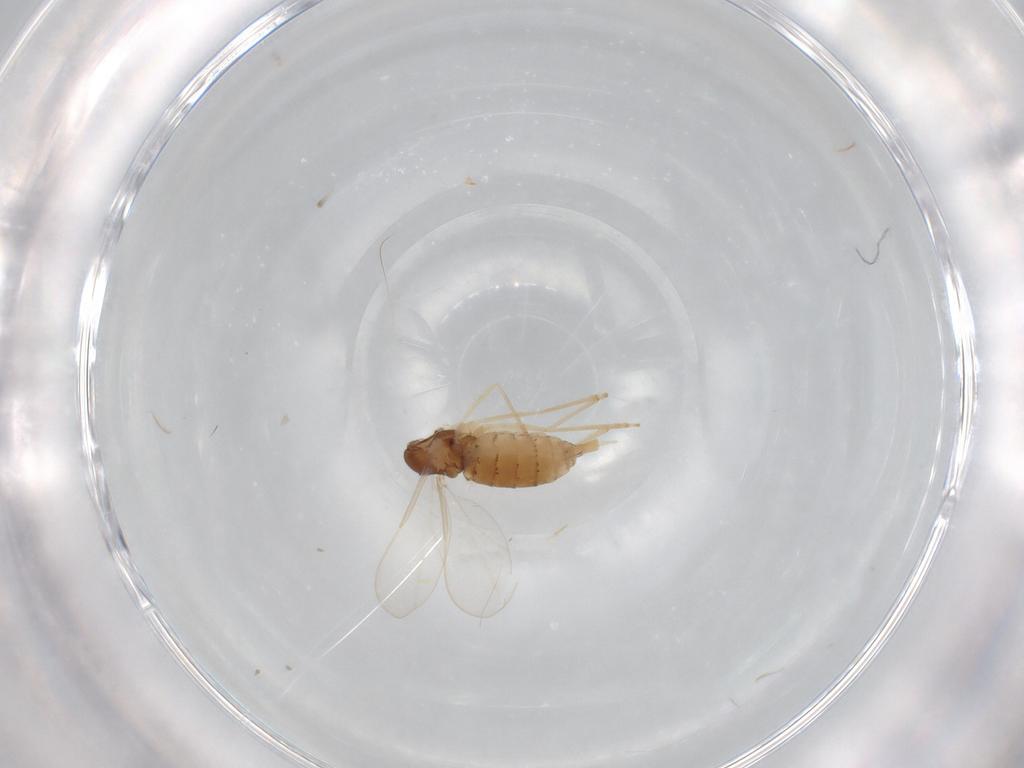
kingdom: Animalia
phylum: Arthropoda
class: Insecta
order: Diptera
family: Cecidomyiidae
